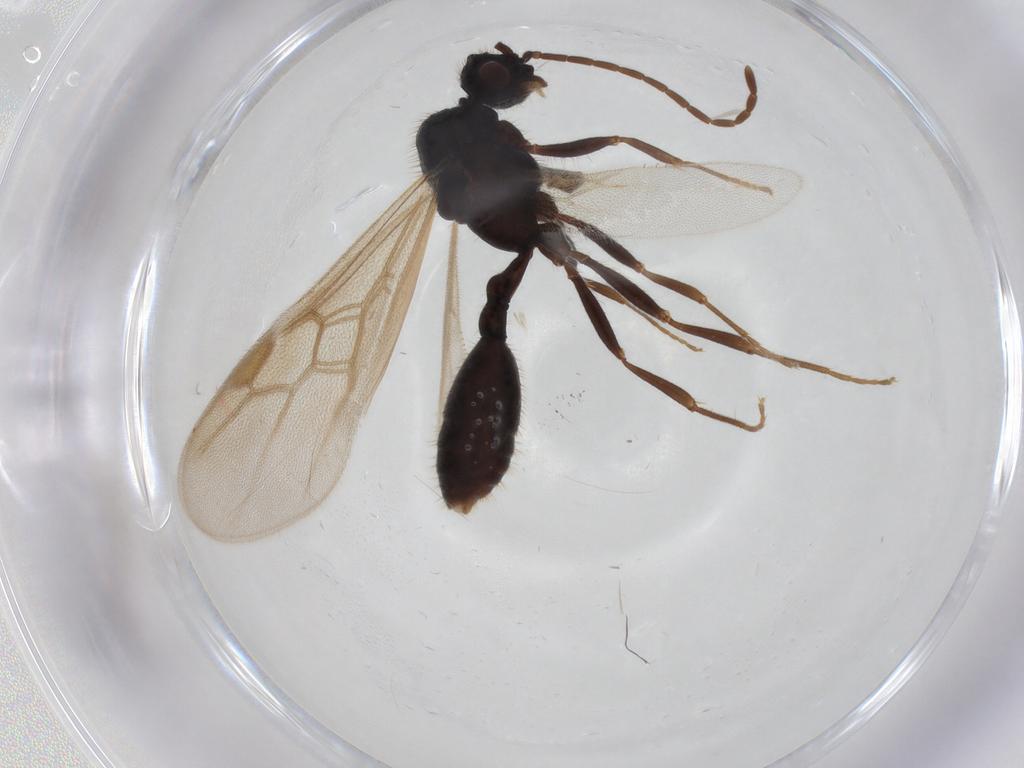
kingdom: Animalia
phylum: Arthropoda
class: Insecta
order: Hymenoptera
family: Formicidae
